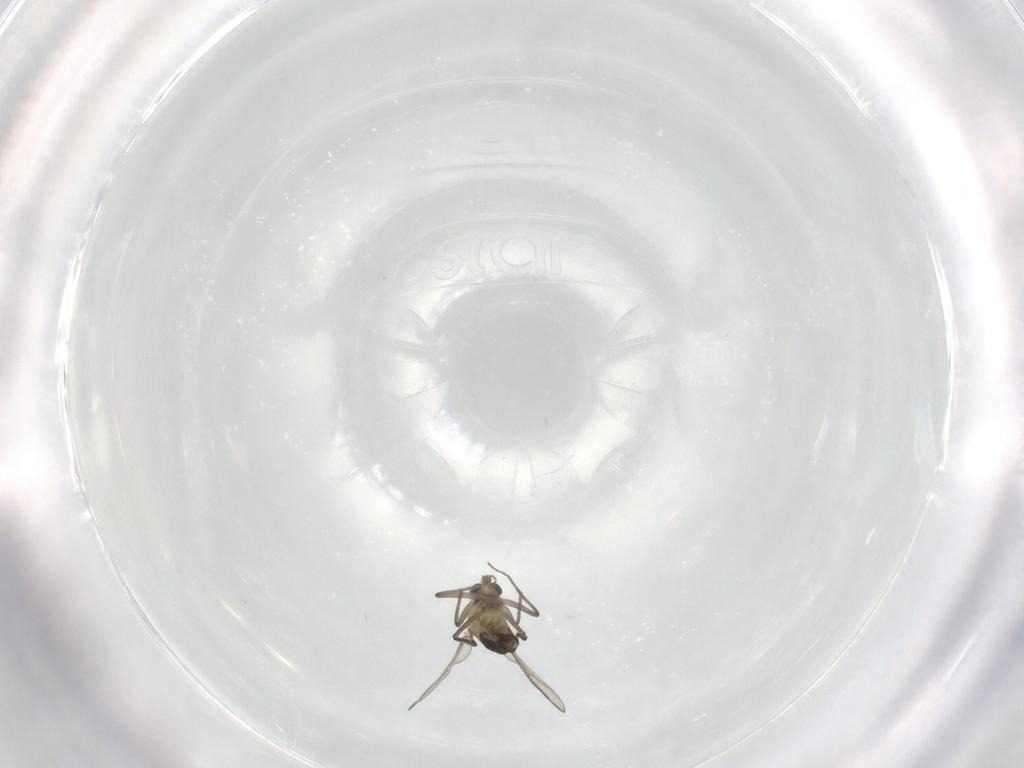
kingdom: Animalia
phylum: Arthropoda
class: Insecta
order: Diptera
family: Chironomidae
